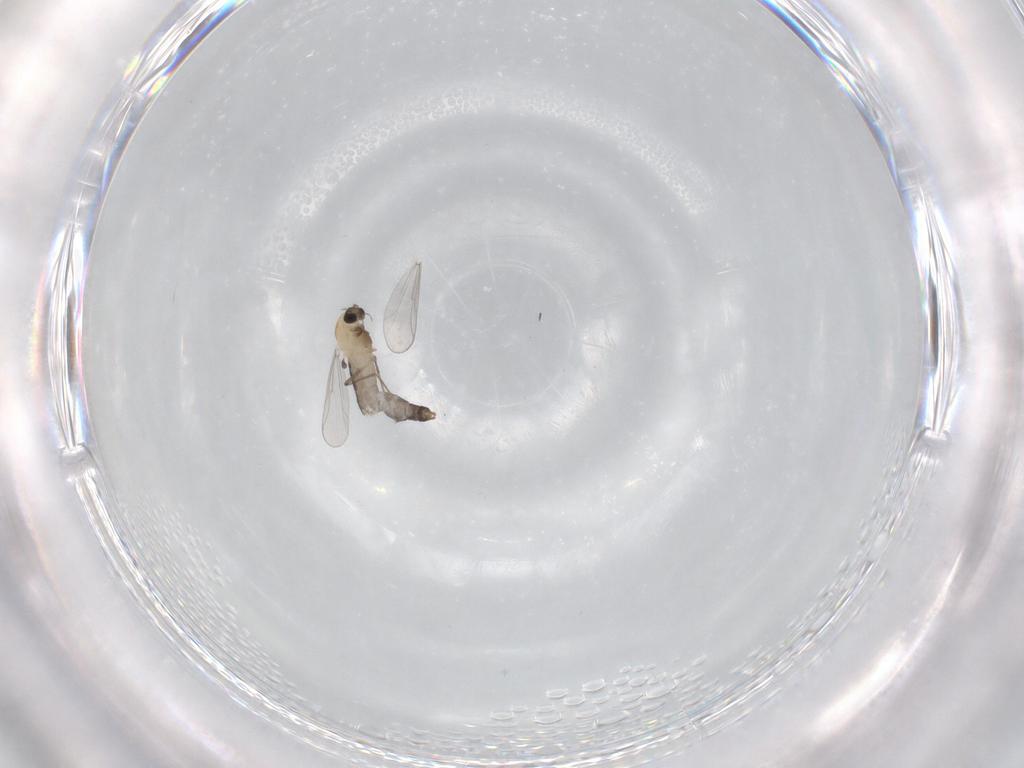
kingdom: Animalia
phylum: Arthropoda
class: Insecta
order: Diptera
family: Chironomidae
